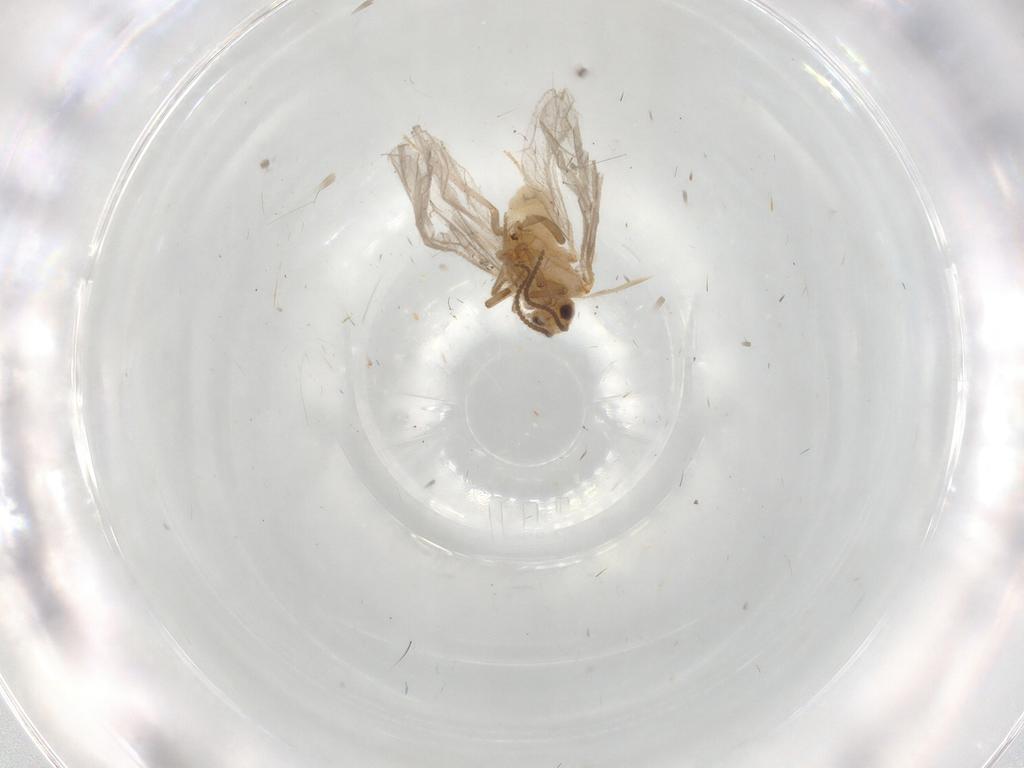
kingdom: Animalia
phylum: Arthropoda
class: Insecta
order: Neuroptera
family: Coniopterygidae
